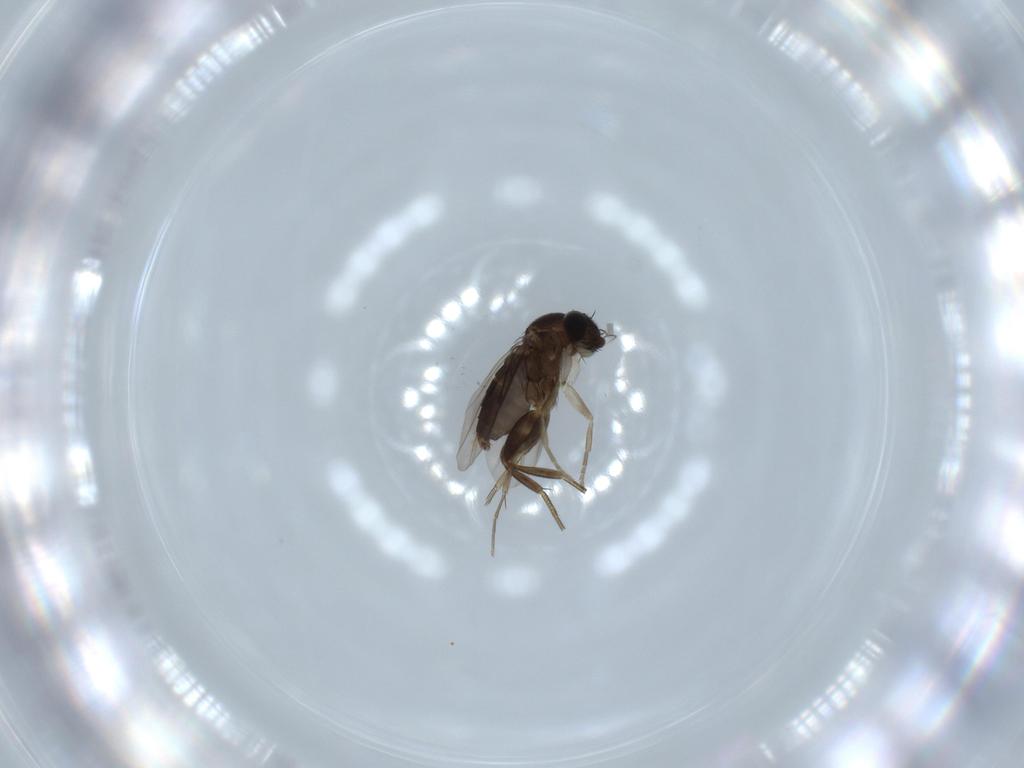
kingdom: Animalia
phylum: Arthropoda
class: Insecta
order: Diptera
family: Phoridae
